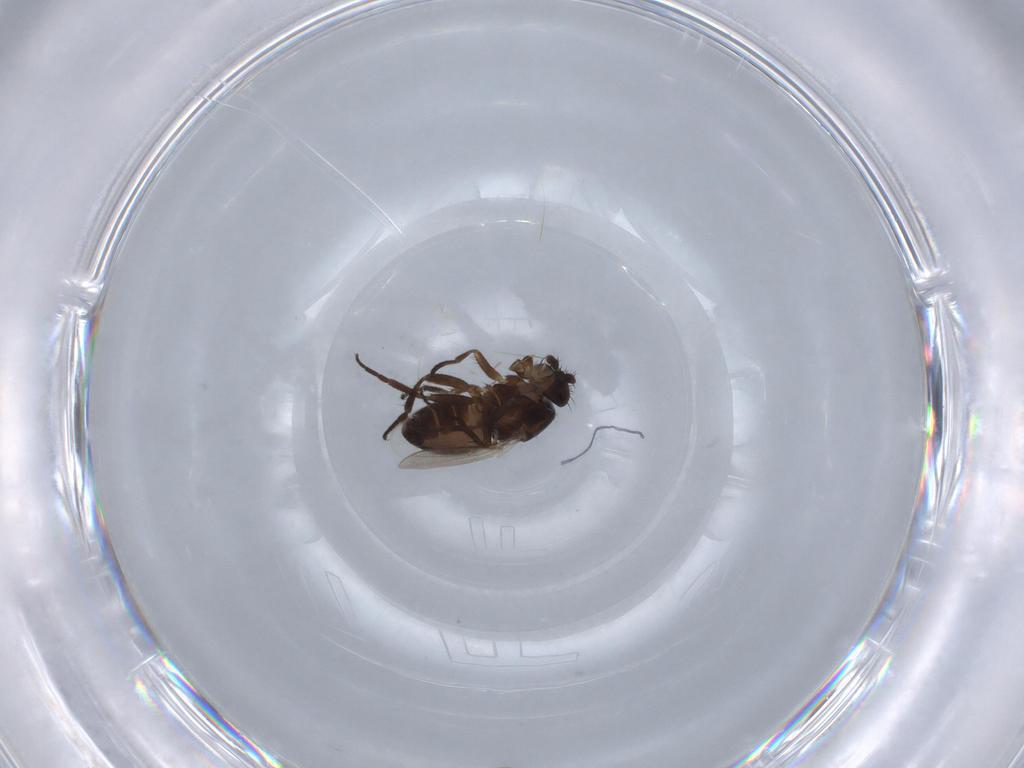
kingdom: Animalia
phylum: Arthropoda
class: Insecta
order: Diptera
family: Sphaeroceridae
